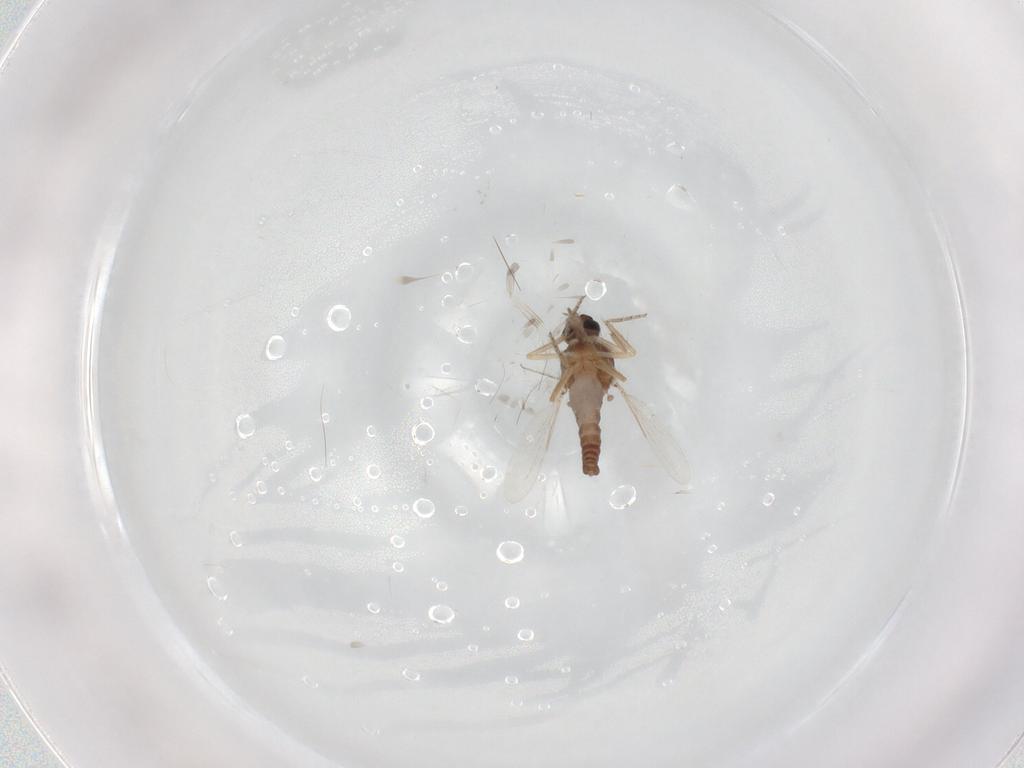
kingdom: Animalia
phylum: Arthropoda
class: Insecta
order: Diptera
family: Ceratopogonidae
